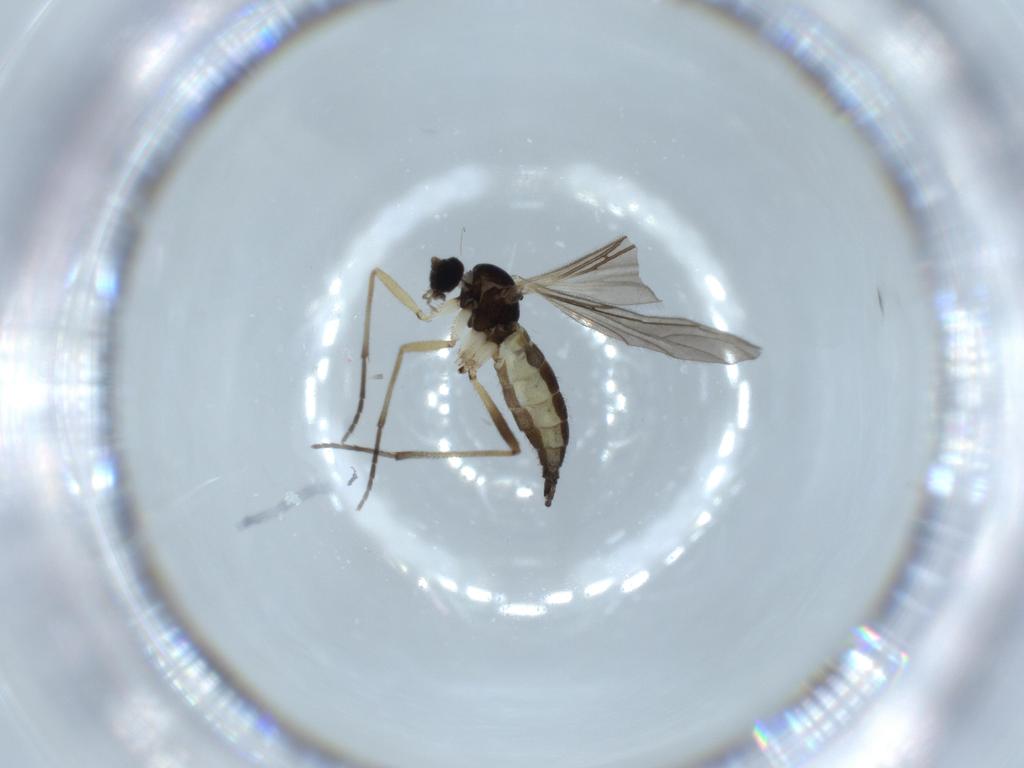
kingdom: Animalia
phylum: Arthropoda
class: Insecta
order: Diptera
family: Sciaridae
